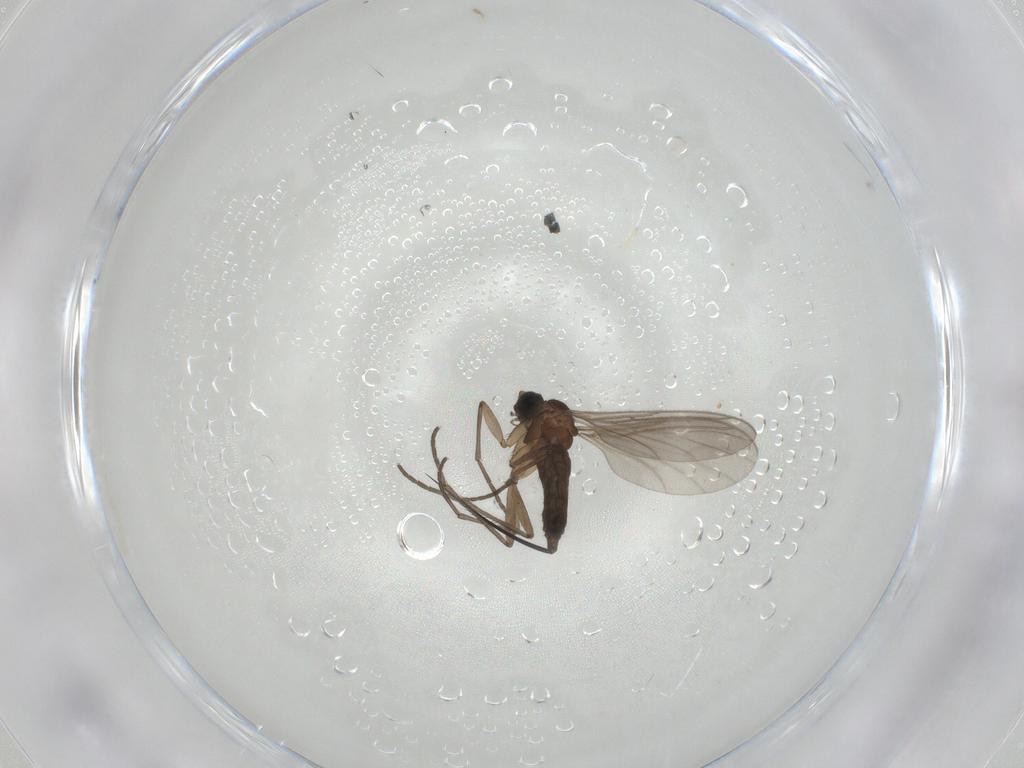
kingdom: Animalia
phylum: Arthropoda
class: Insecta
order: Diptera
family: Sciaridae
